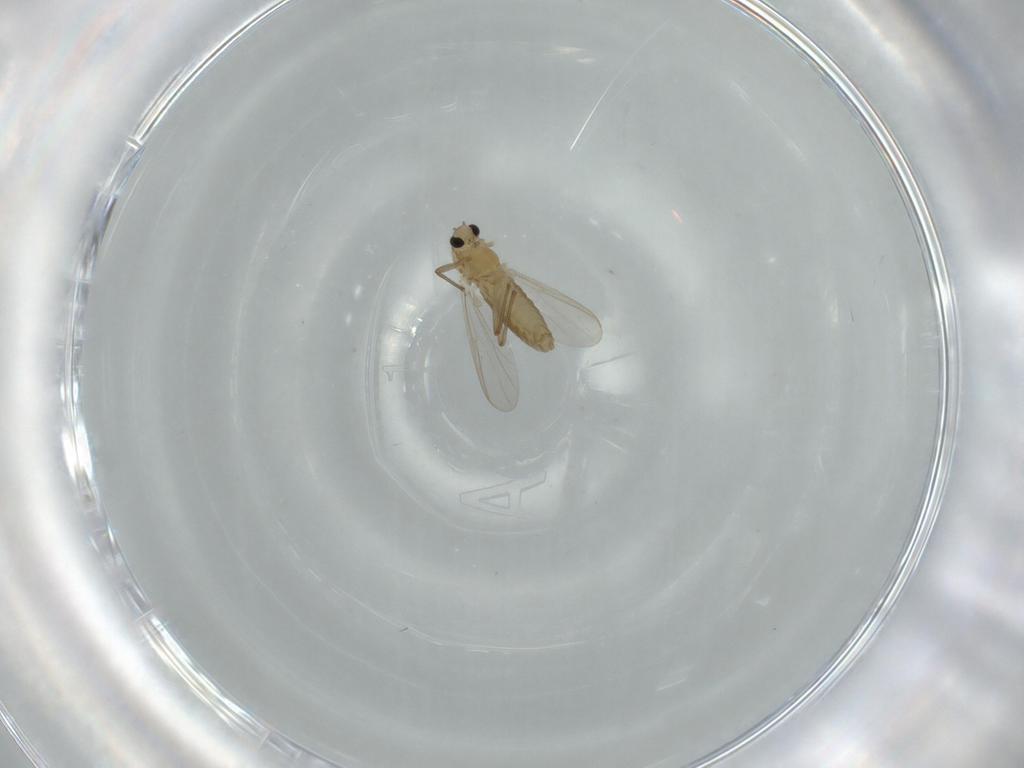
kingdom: Animalia
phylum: Arthropoda
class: Insecta
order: Diptera
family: Chironomidae
